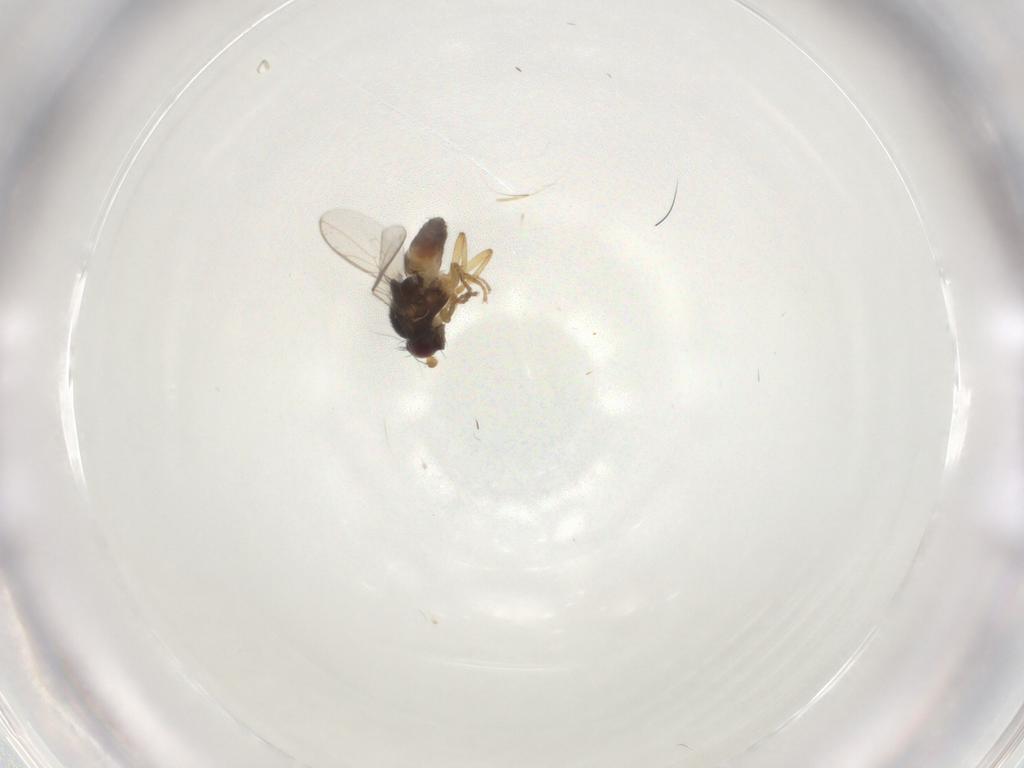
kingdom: Animalia
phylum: Arthropoda
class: Insecta
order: Diptera
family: Sphaeroceridae
